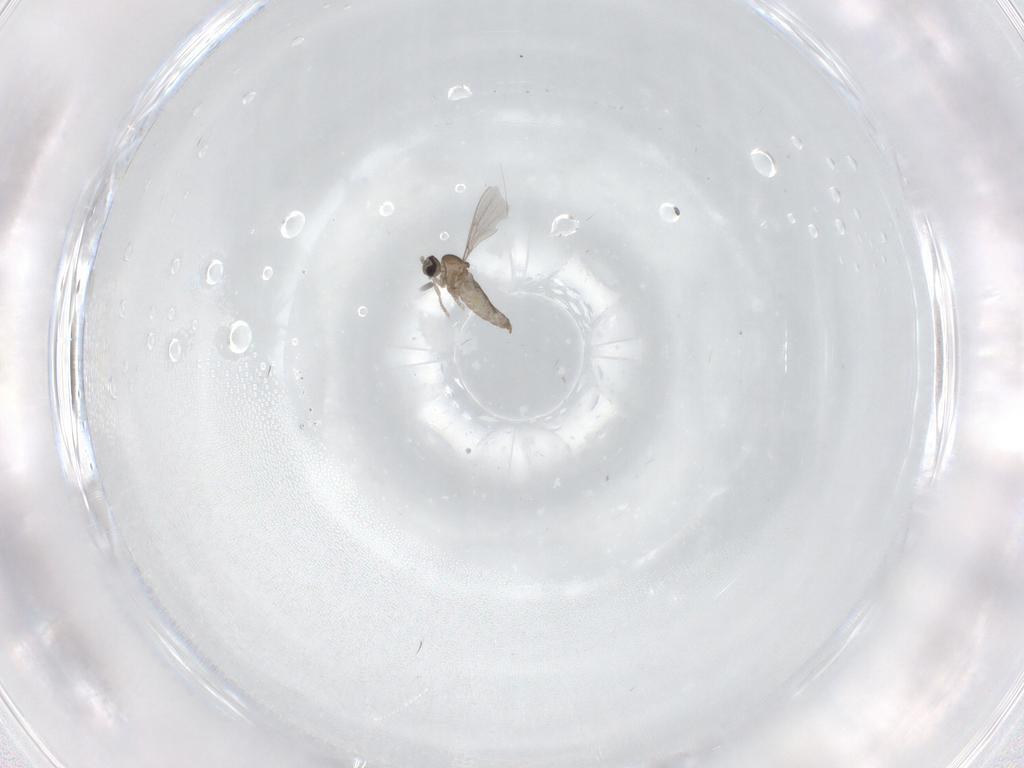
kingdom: Animalia
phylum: Arthropoda
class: Insecta
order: Diptera
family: Cecidomyiidae
